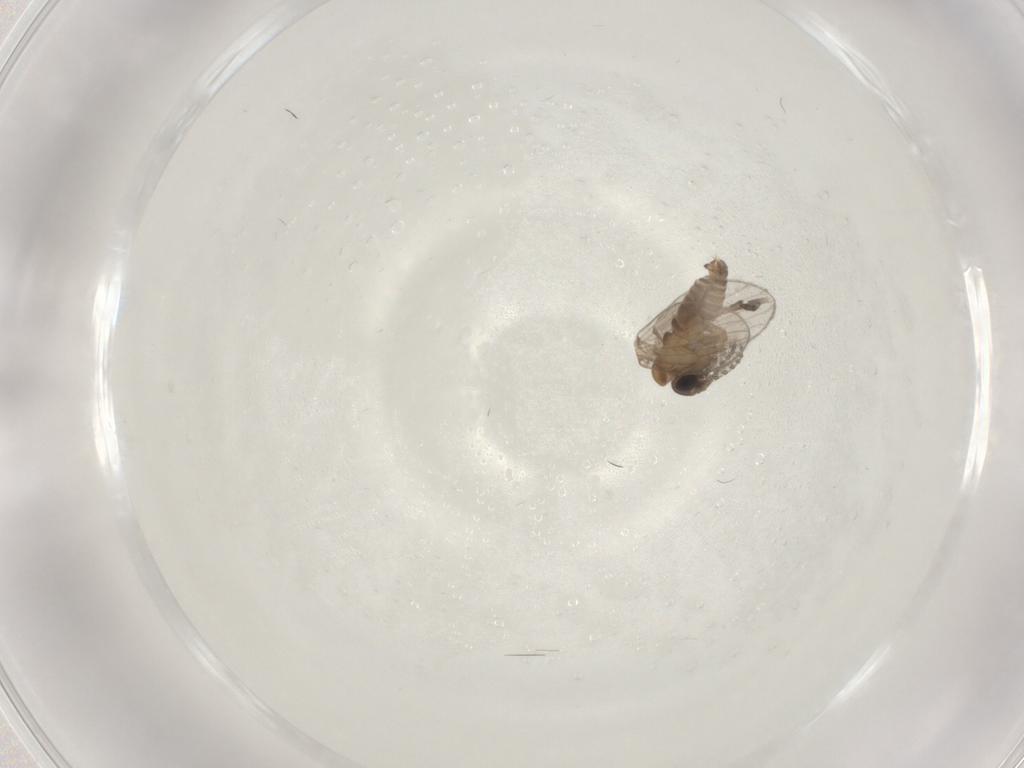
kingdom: Animalia
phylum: Arthropoda
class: Insecta
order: Diptera
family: Psychodidae
